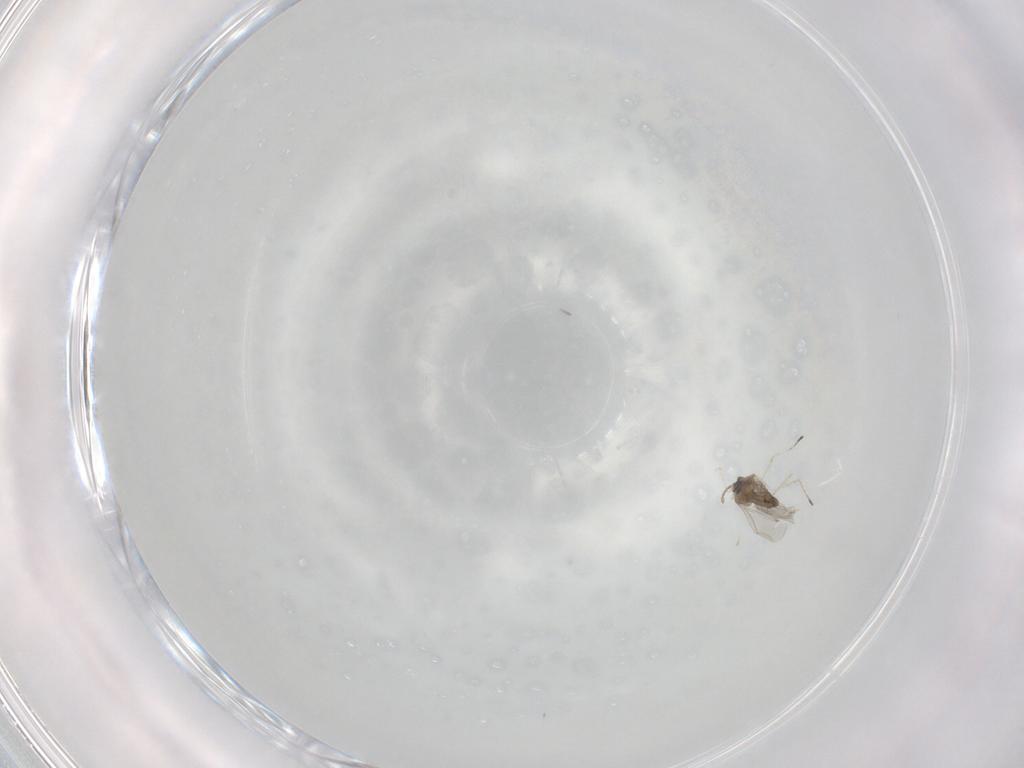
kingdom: Animalia
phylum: Arthropoda
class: Insecta
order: Diptera
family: Cecidomyiidae
